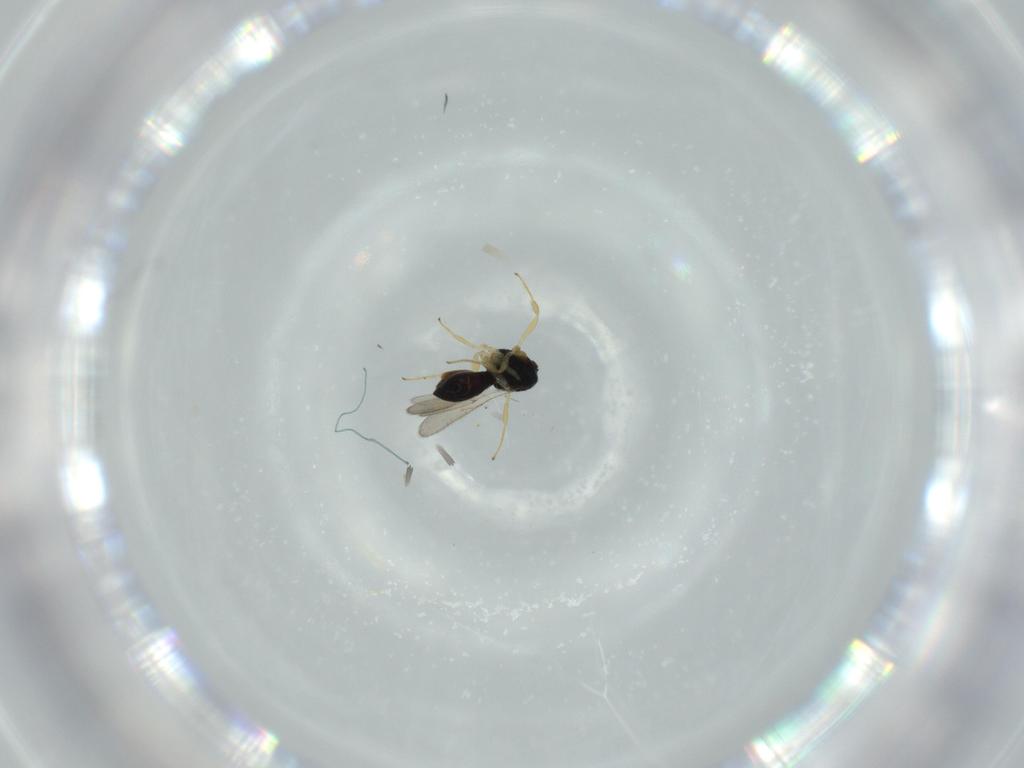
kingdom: Animalia
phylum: Arthropoda
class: Insecta
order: Hymenoptera
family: Scelionidae
